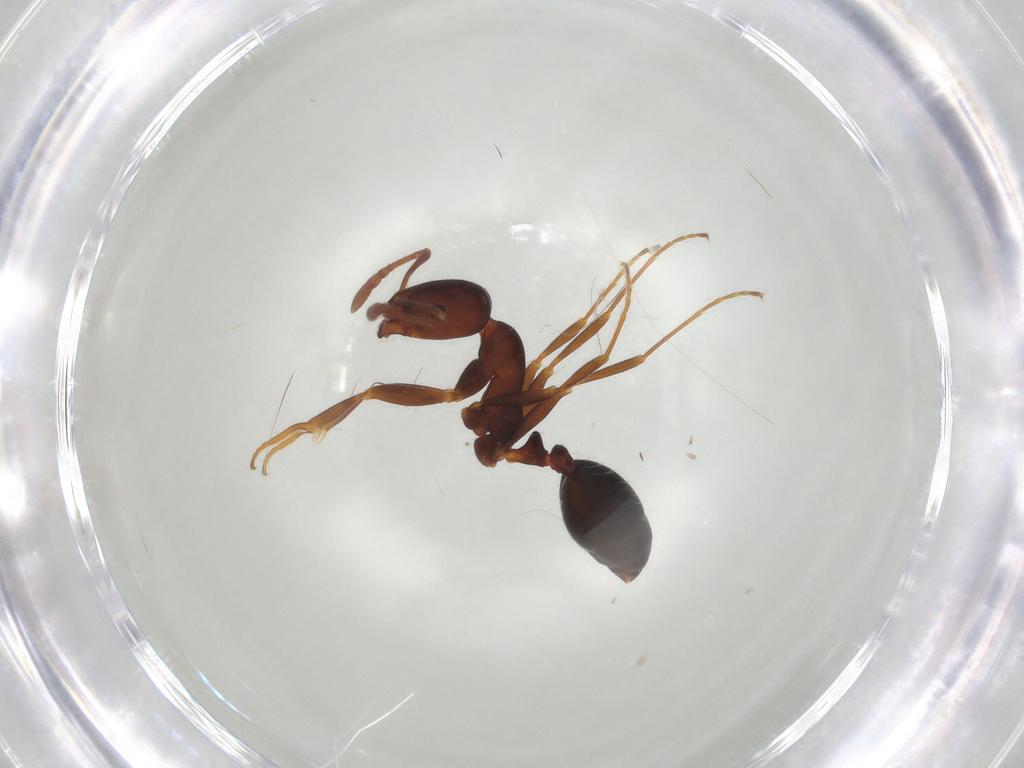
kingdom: Animalia
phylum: Arthropoda
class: Insecta
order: Hymenoptera
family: Formicidae
